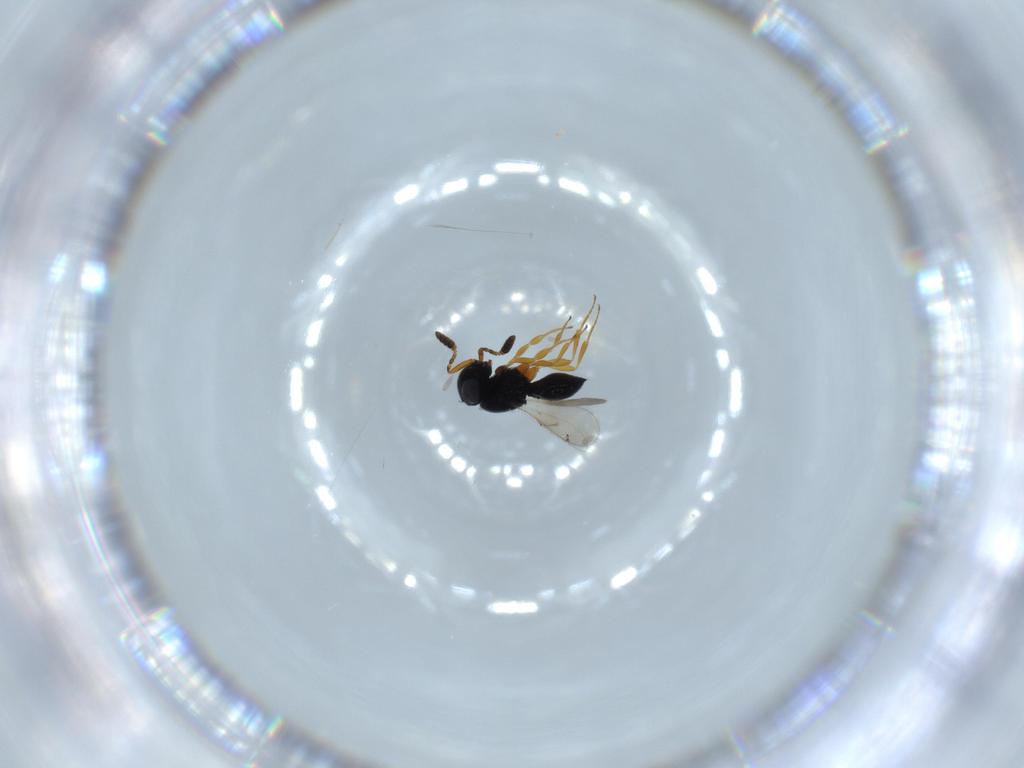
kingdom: Animalia
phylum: Arthropoda
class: Insecta
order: Hymenoptera
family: Scelionidae
